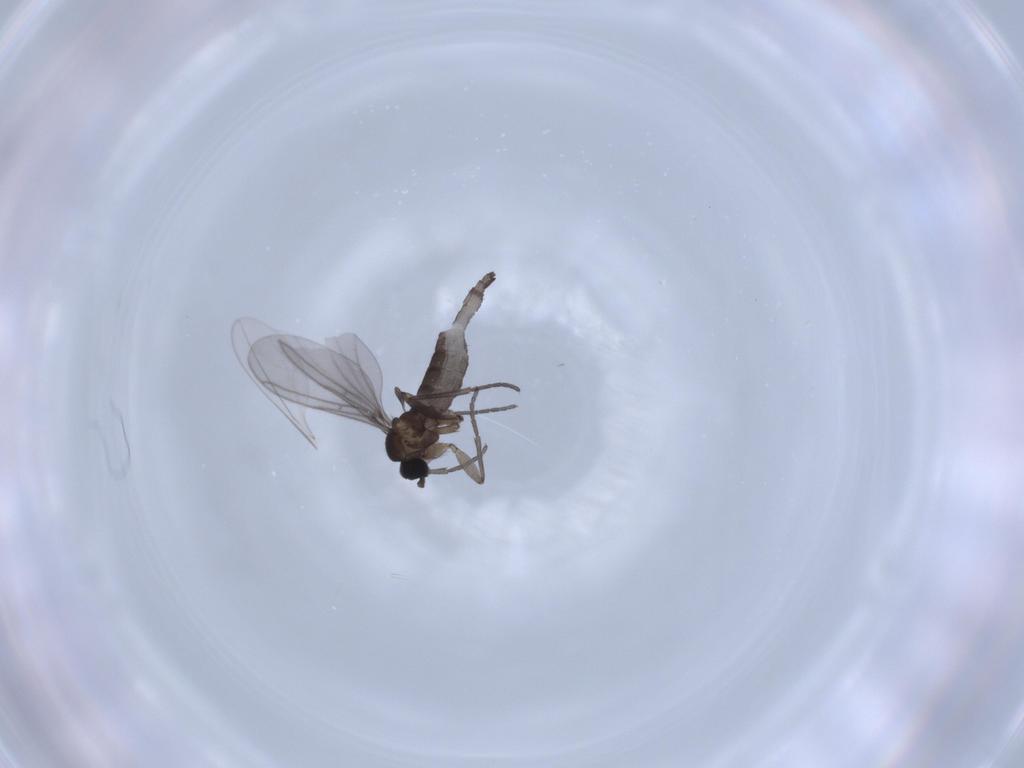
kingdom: Animalia
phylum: Arthropoda
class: Insecta
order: Diptera
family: Cecidomyiidae
